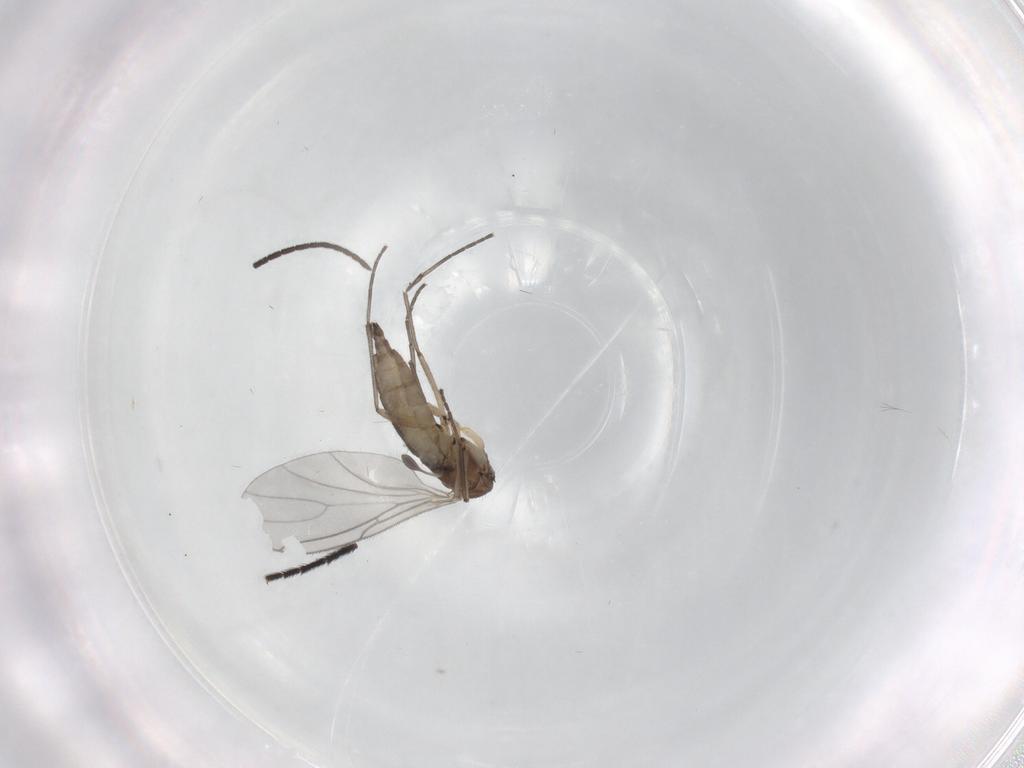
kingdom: Animalia
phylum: Arthropoda
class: Insecta
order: Diptera
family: Sciaridae
